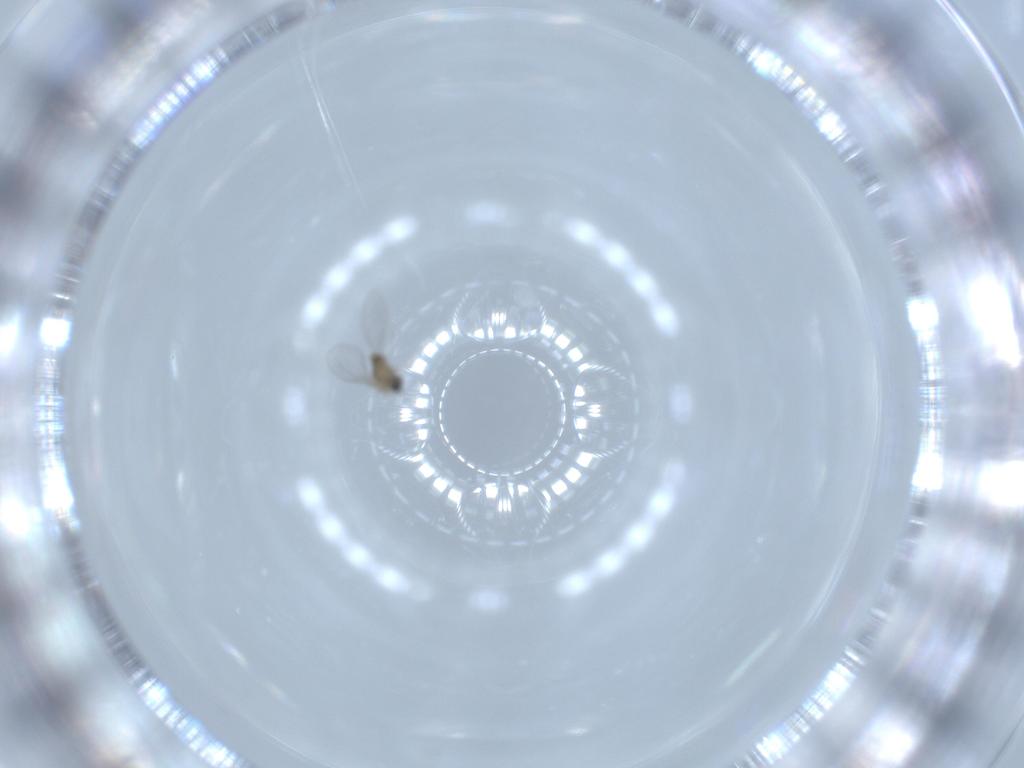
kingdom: Animalia
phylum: Arthropoda
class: Insecta
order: Diptera
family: Cecidomyiidae
